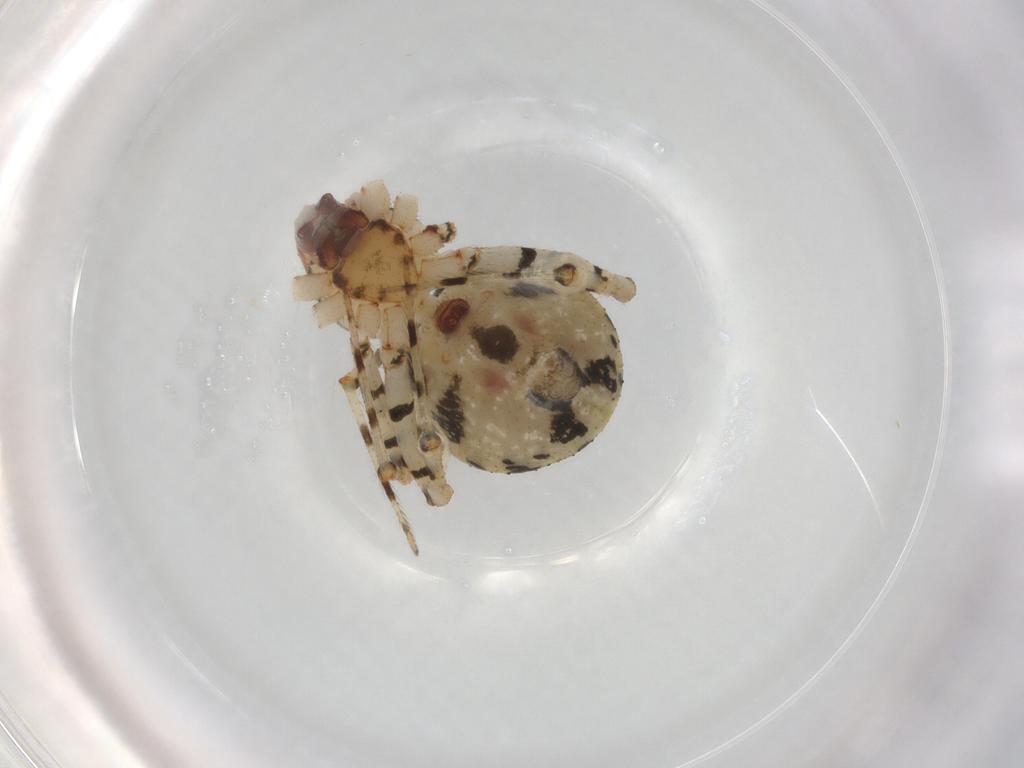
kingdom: Animalia
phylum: Arthropoda
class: Arachnida
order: Araneae
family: Theridiidae
